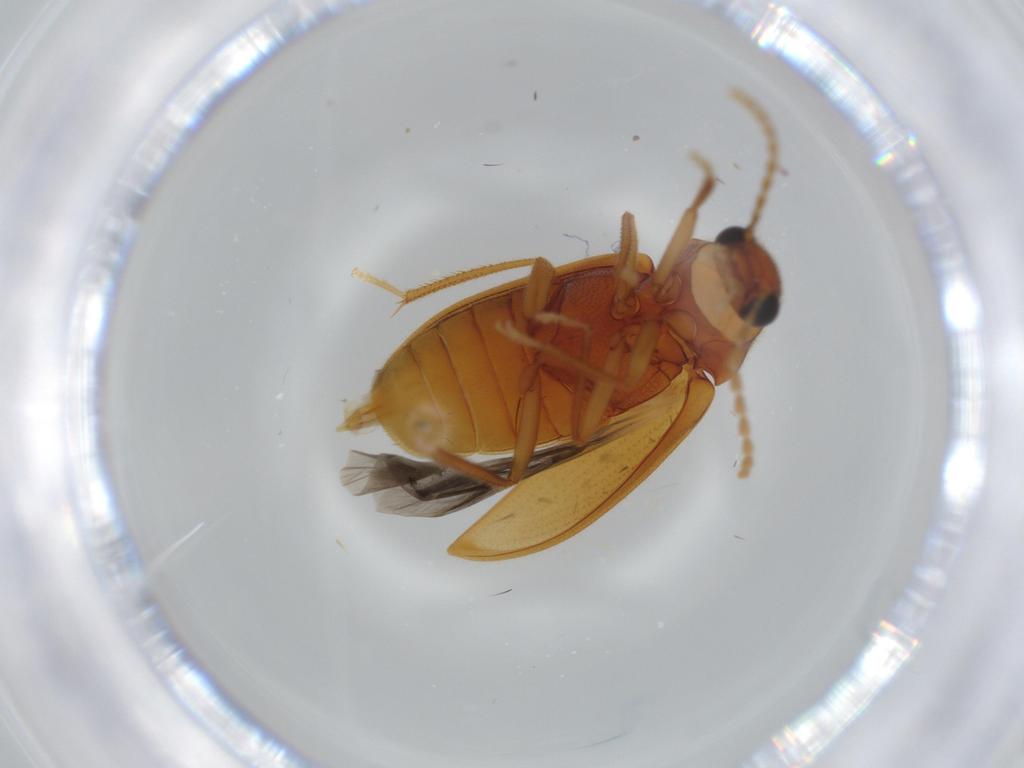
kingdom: Animalia
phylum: Arthropoda
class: Insecta
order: Coleoptera
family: Ptilodactylidae
